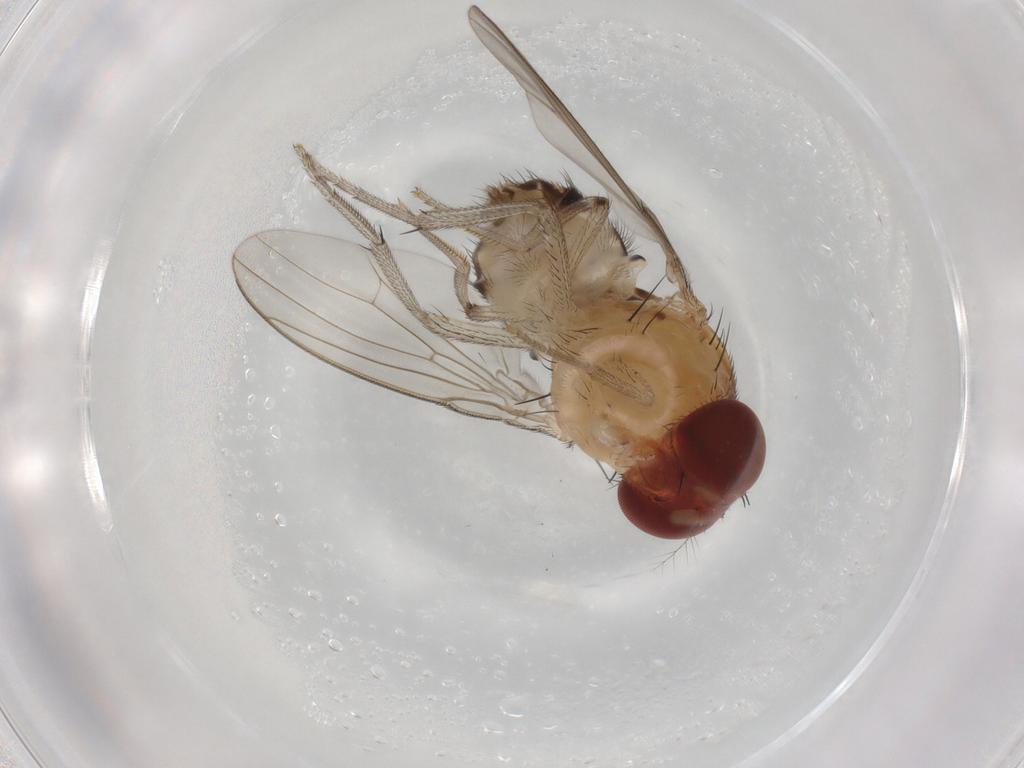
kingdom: Animalia
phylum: Arthropoda
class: Insecta
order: Diptera
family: Drosophilidae
